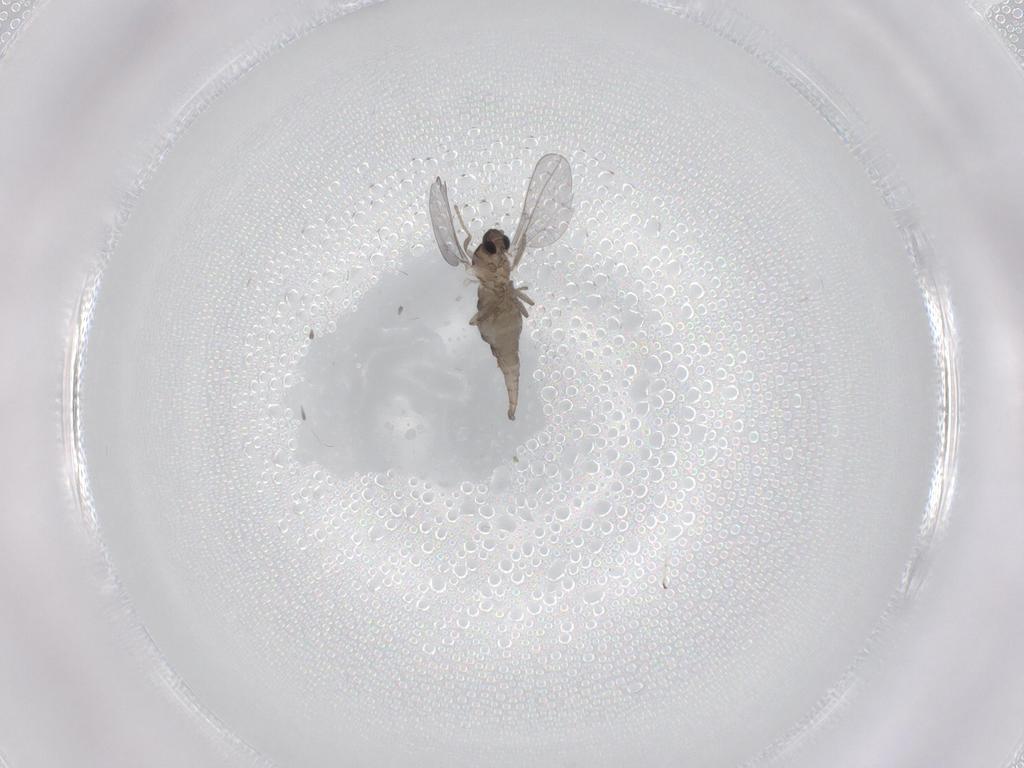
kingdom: Animalia
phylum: Arthropoda
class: Insecta
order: Diptera
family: Cecidomyiidae
